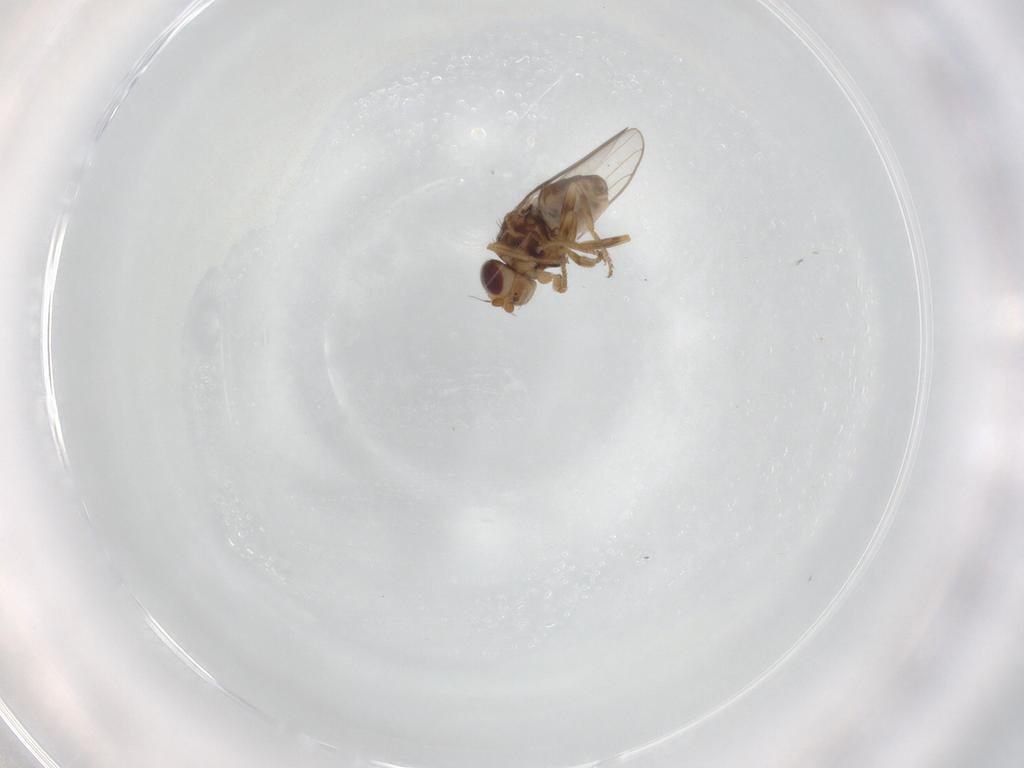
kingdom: Animalia
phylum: Arthropoda
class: Insecta
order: Diptera
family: Chloropidae
